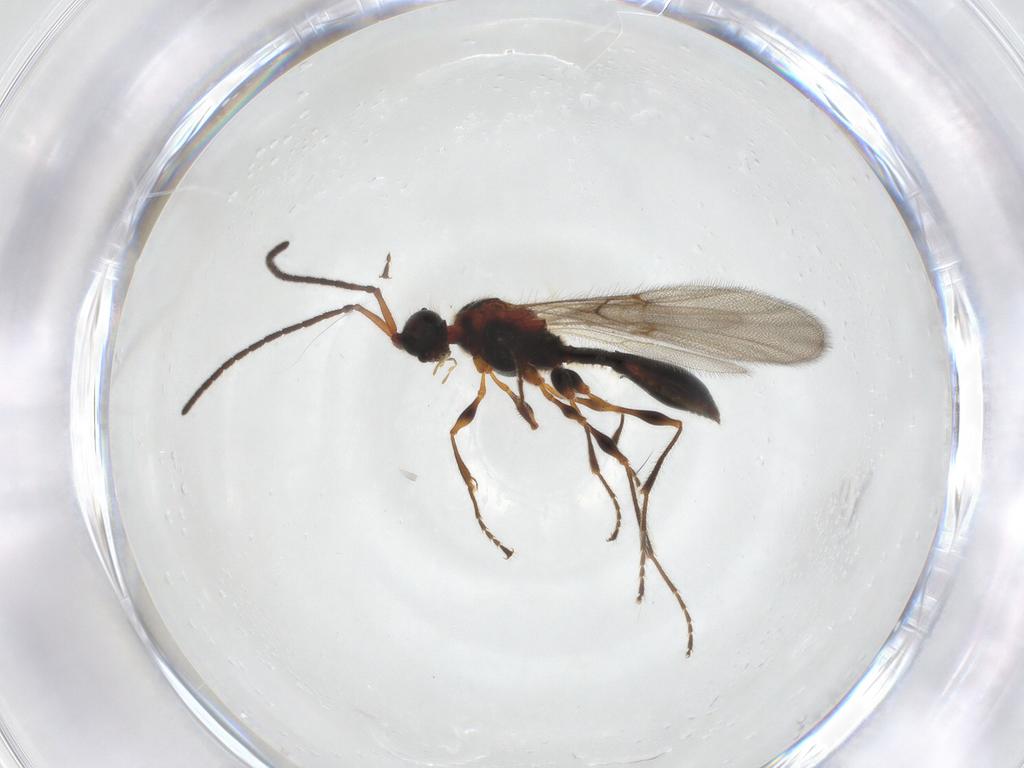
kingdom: Animalia
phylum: Arthropoda
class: Insecta
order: Hymenoptera
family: Diapriidae
